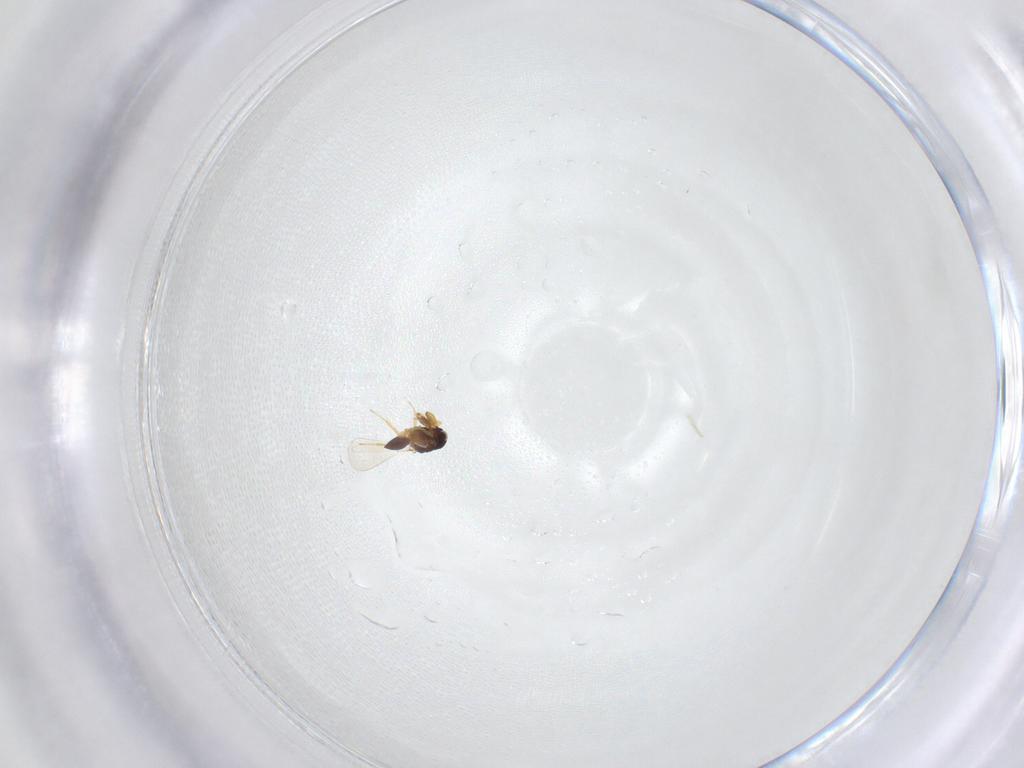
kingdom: Animalia
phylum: Arthropoda
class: Insecta
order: Hymenoptera
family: Platygastridae
